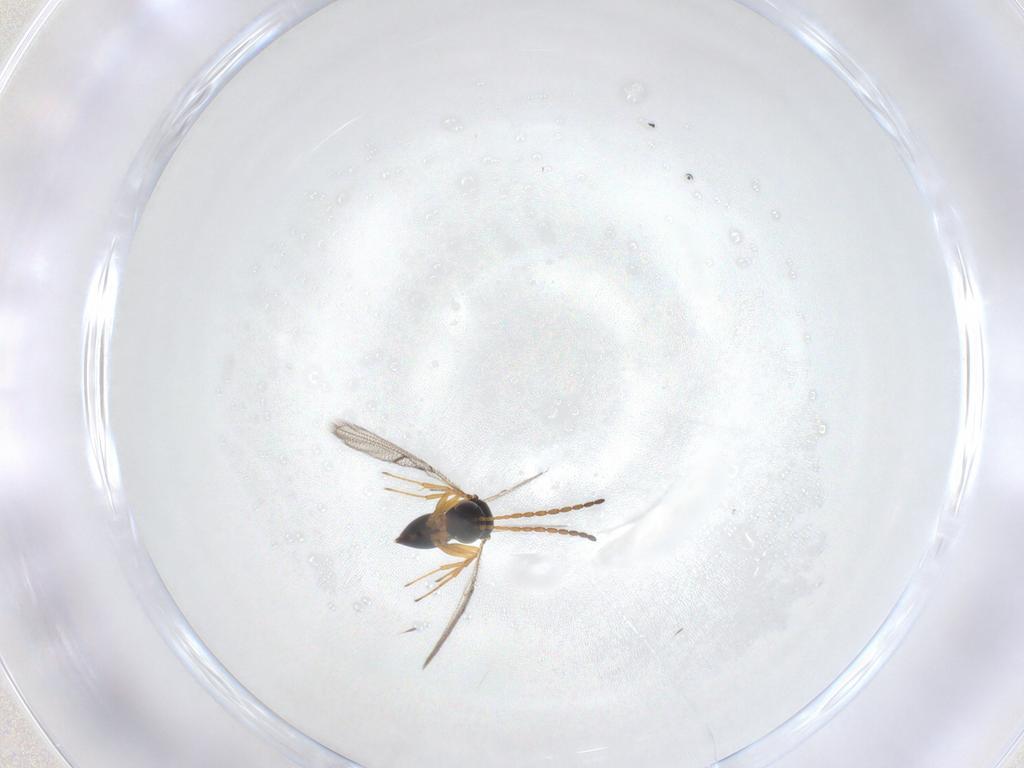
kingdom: Animalia
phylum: Arthropoda
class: Insecta
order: Hymenoptera
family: Figitidae
